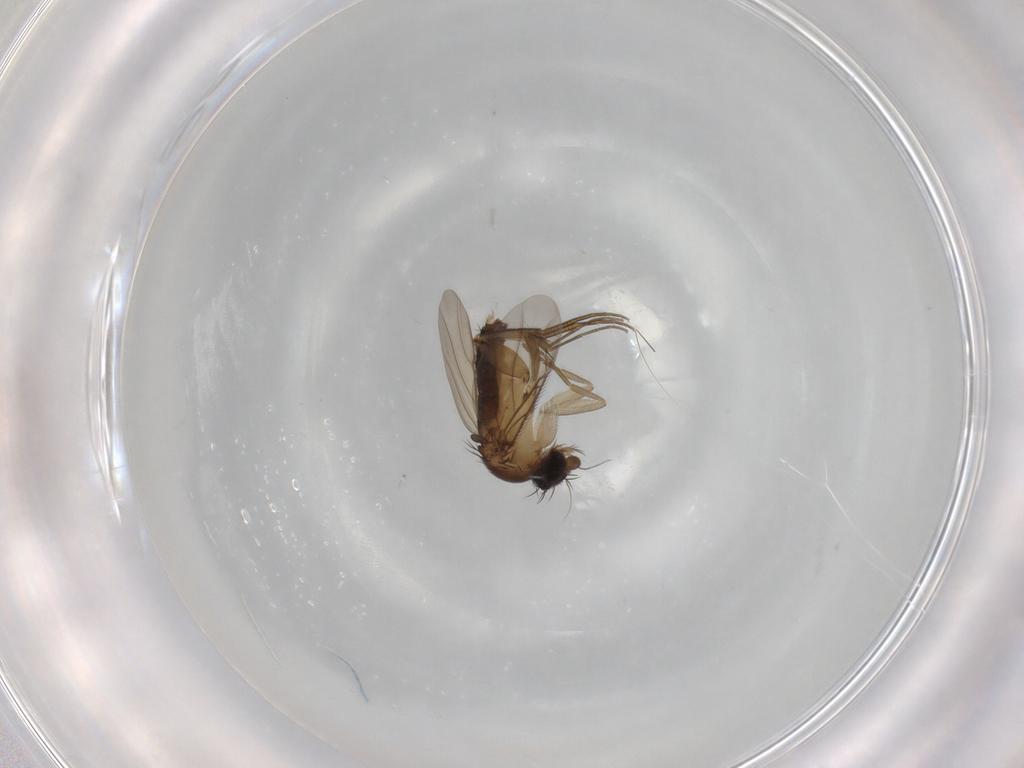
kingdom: Animalia
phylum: Arthropoda
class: Insecta
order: Diptera
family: Phoridae
